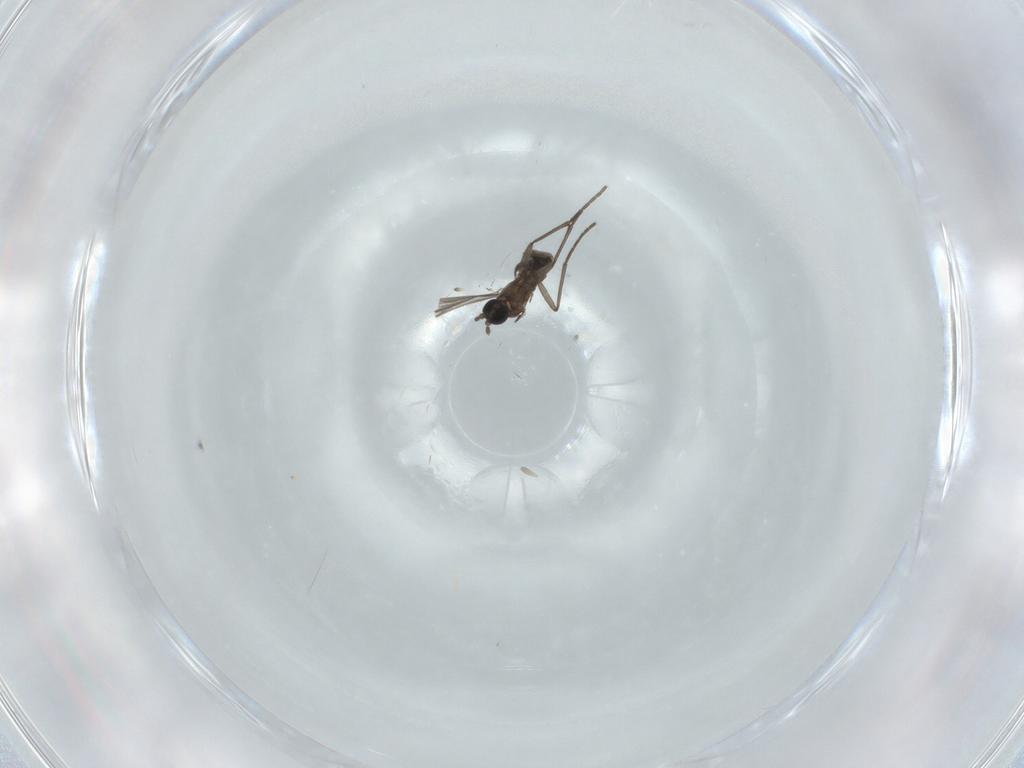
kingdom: Animalia
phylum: Arthropoda
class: Insecta
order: Diptera
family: Sciaridae
